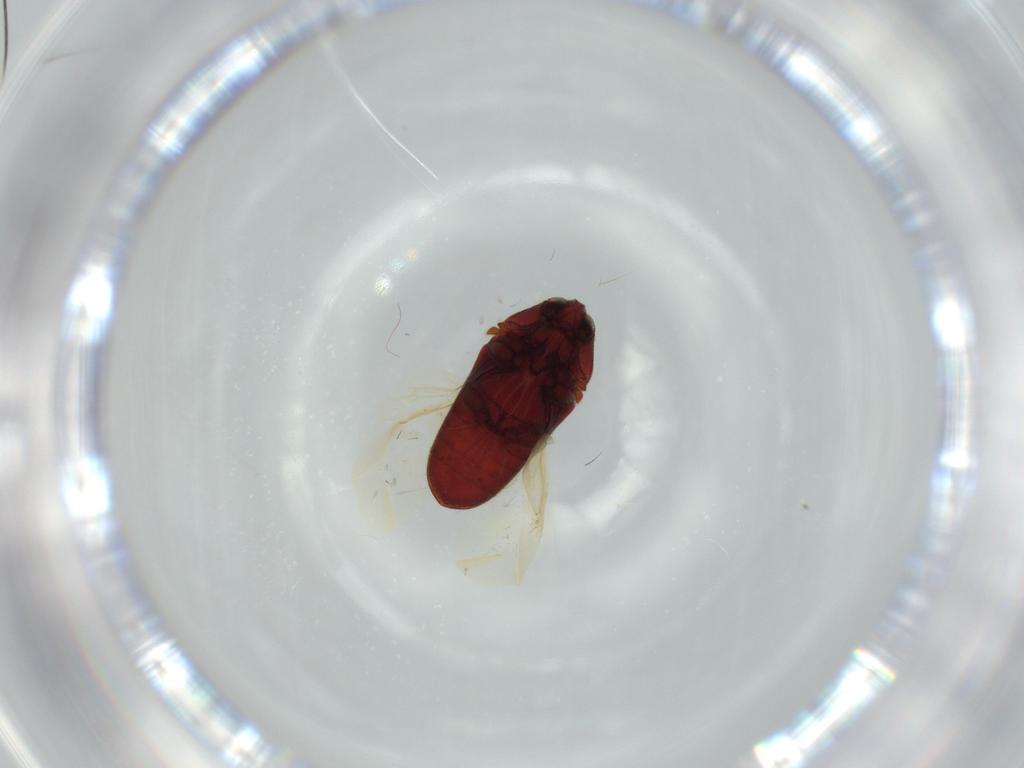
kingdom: Animalia
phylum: Arthropoda
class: Insecta
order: Coleoptera
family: Throscidae
